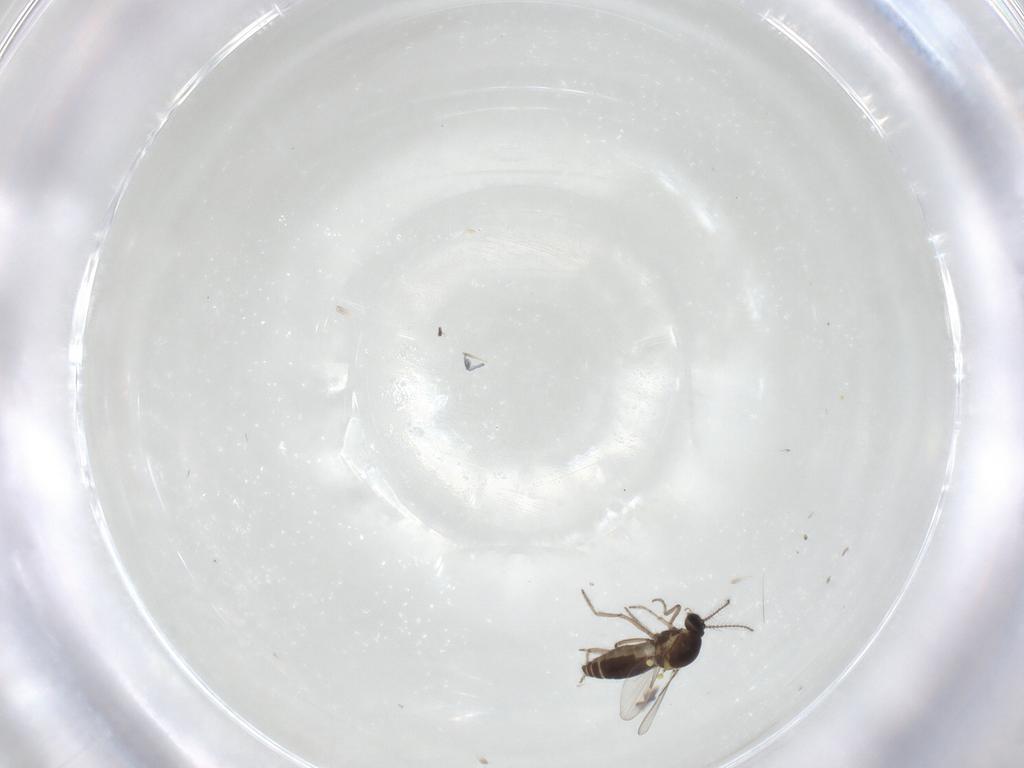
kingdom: Animalia
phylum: Arthropoda
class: Insecta
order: Diptera
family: Ceratopogonidae
